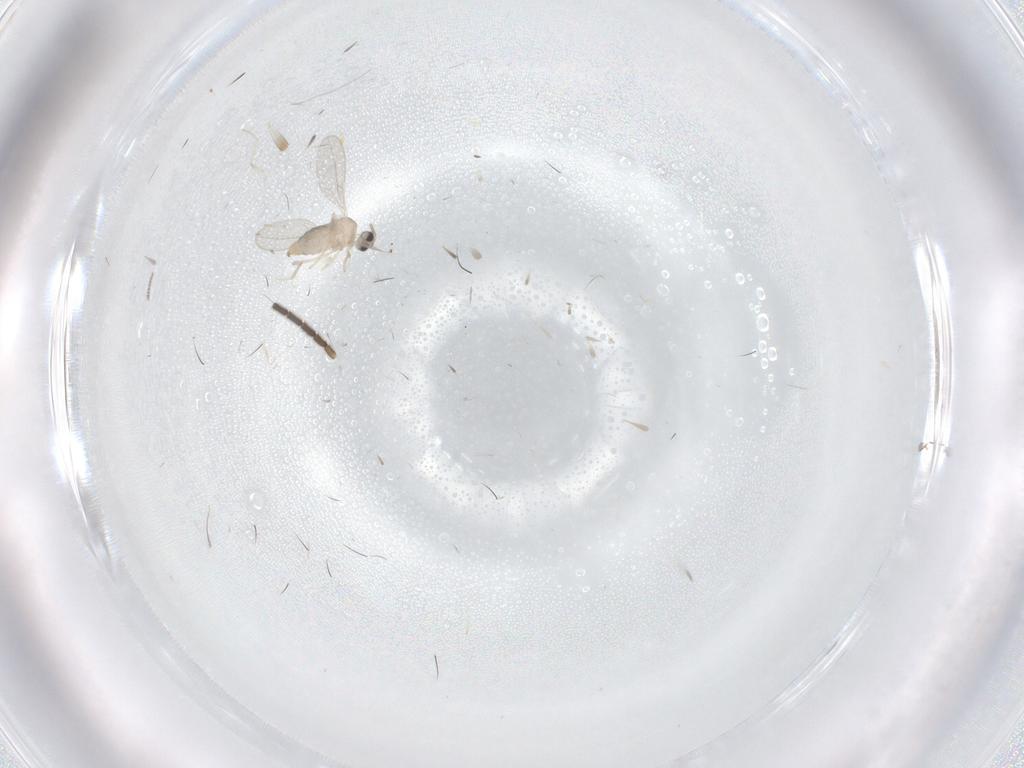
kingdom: Animalia
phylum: Arthropoda
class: Insecta
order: Diptera
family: Cecidomyiidae
